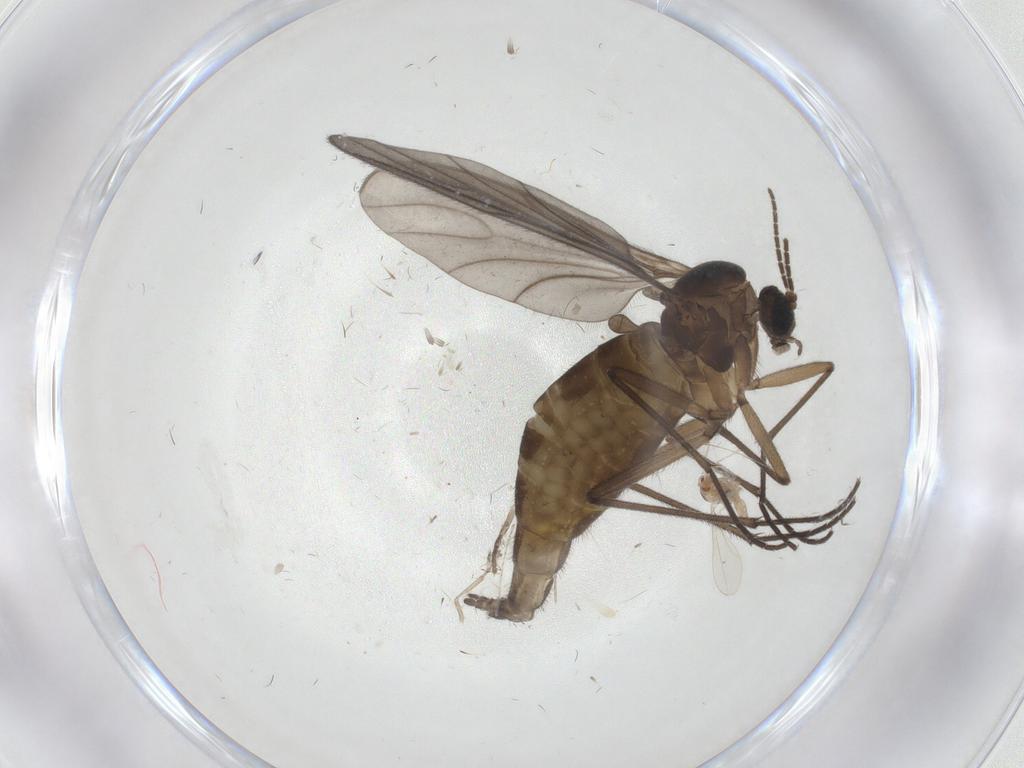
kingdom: Animalia
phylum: Arthropoda
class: Insecta
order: Diptera
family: Sciaridae
